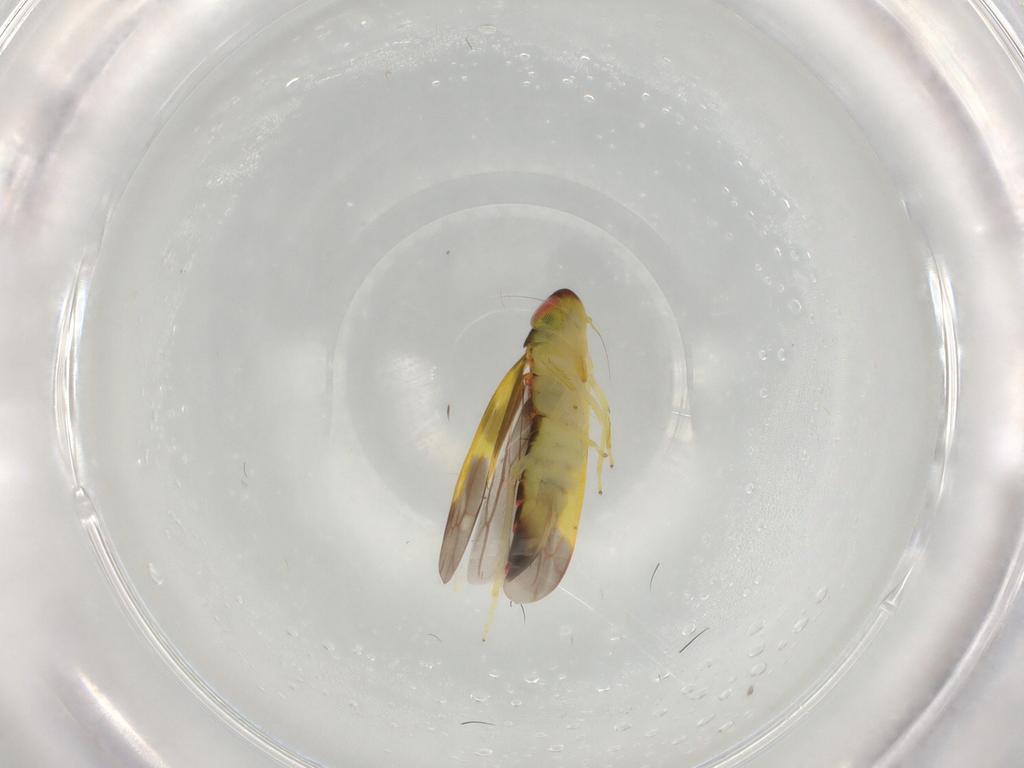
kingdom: Animalia
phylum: Arthropoda
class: Insecta
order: Hemiptera
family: Cicadellidae
